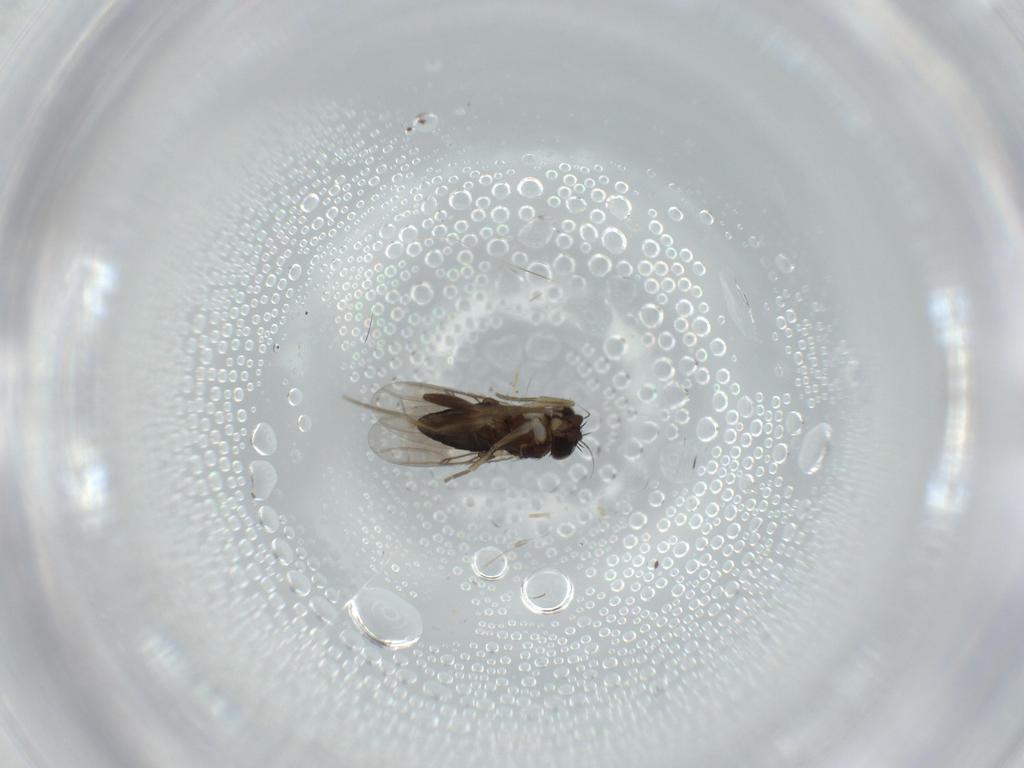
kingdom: Animalia
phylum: Arthropoda
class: Insecta
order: Diptera
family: Phoridae
